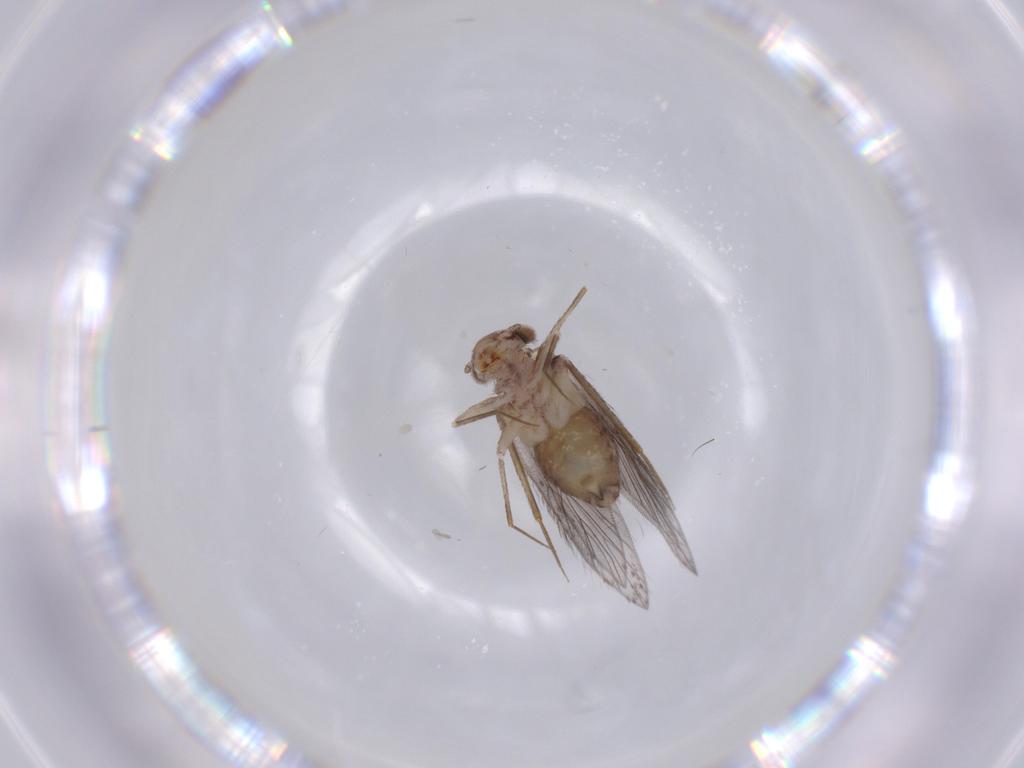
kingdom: Animalia
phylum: Arthropoda
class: Insecta
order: Psocodea
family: Lepidopsocidae
